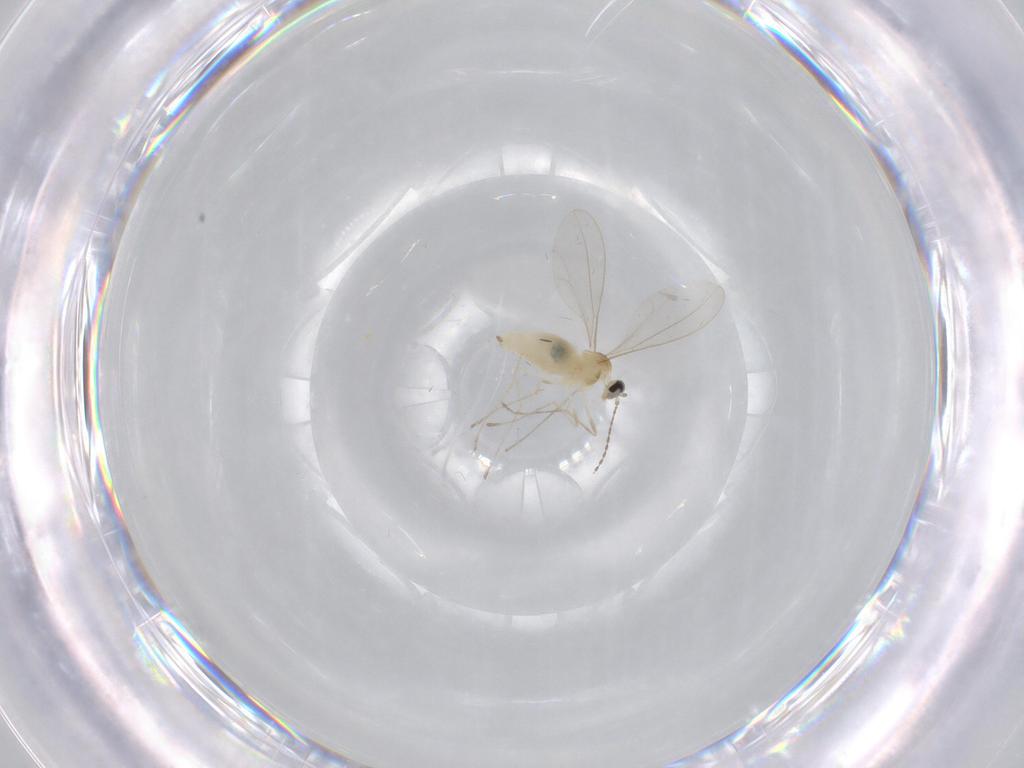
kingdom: Animalia
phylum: Arthropoda
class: Insecta
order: Diptera
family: Cecidomyiidae
